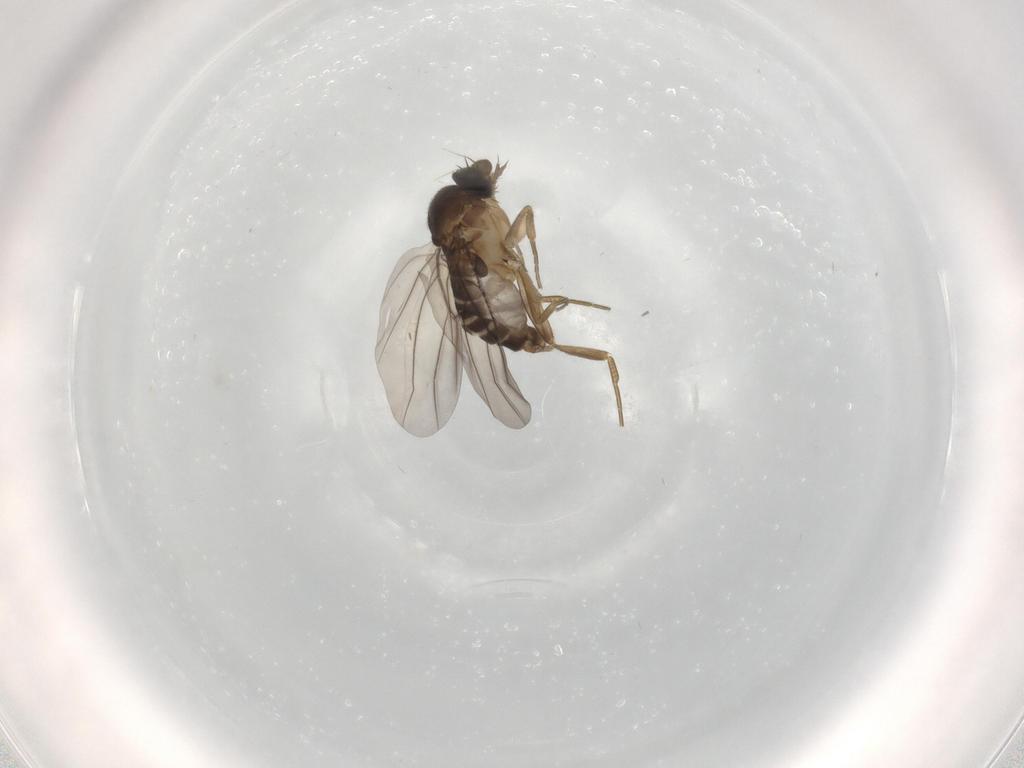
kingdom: Animalia
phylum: Arthropoda
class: Insecta
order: Diptera
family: Phoridae
